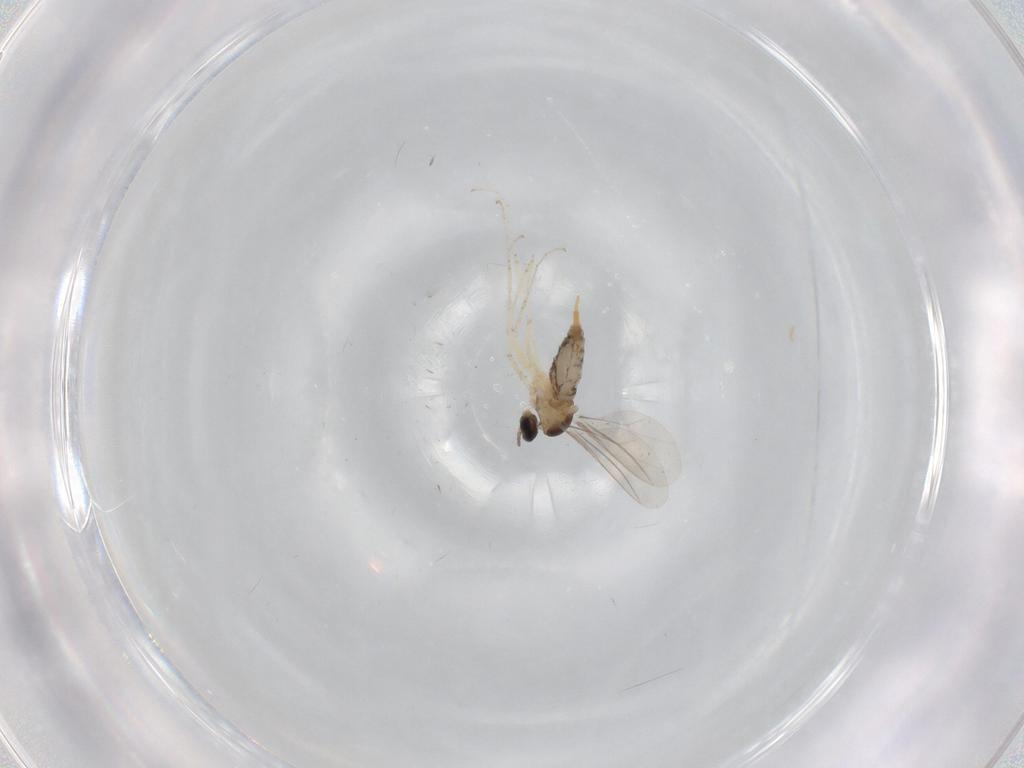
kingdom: Animalia
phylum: Arthropoda
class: Insecta
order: Diptera
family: Cecidomyiidae
